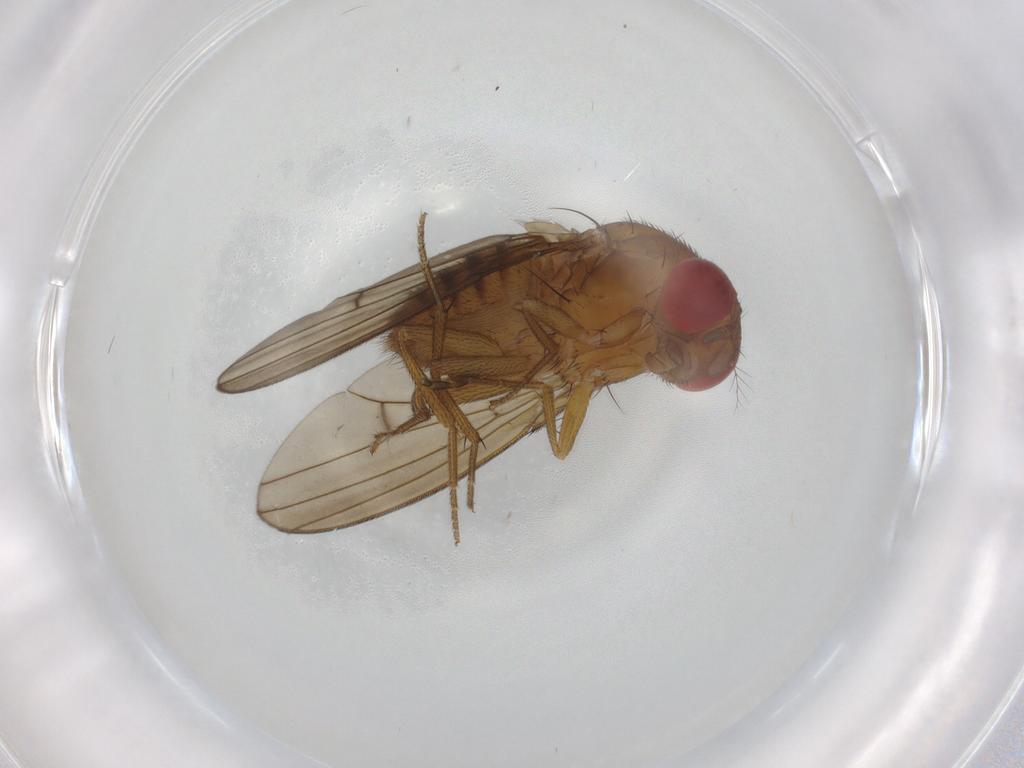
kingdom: Animalia
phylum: Arthropoda
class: Insecta
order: Diptera
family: Drosophilidae
